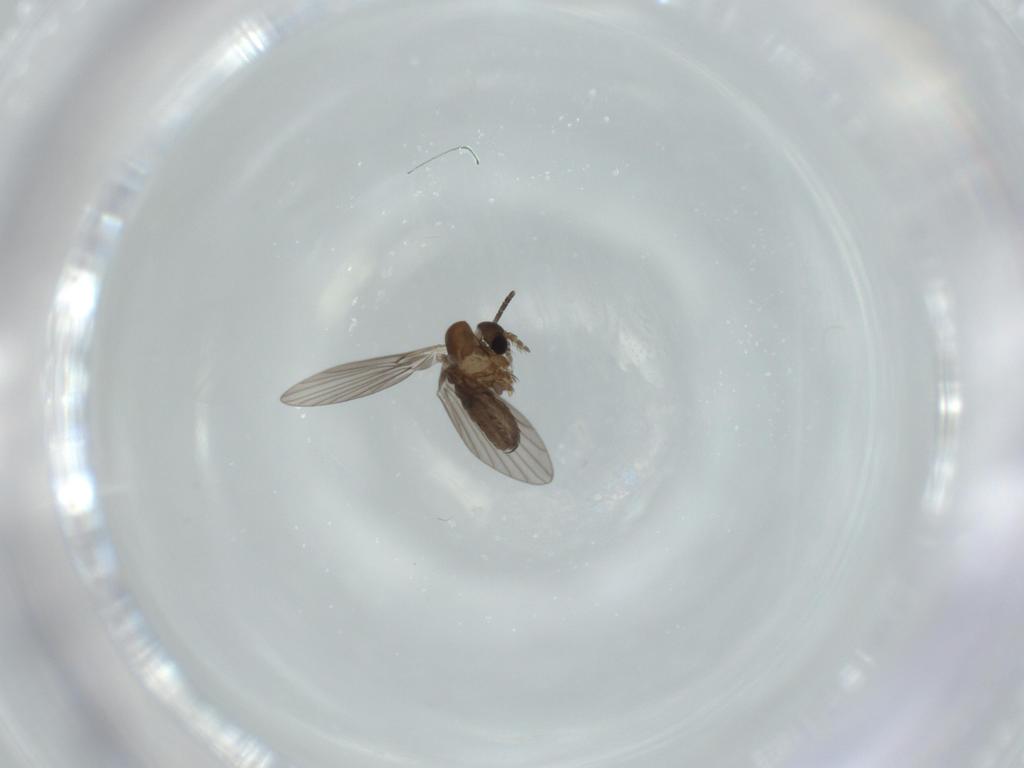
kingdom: Animalia
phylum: Arthropoda
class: Insecta
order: Diptera
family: Psychodidae
